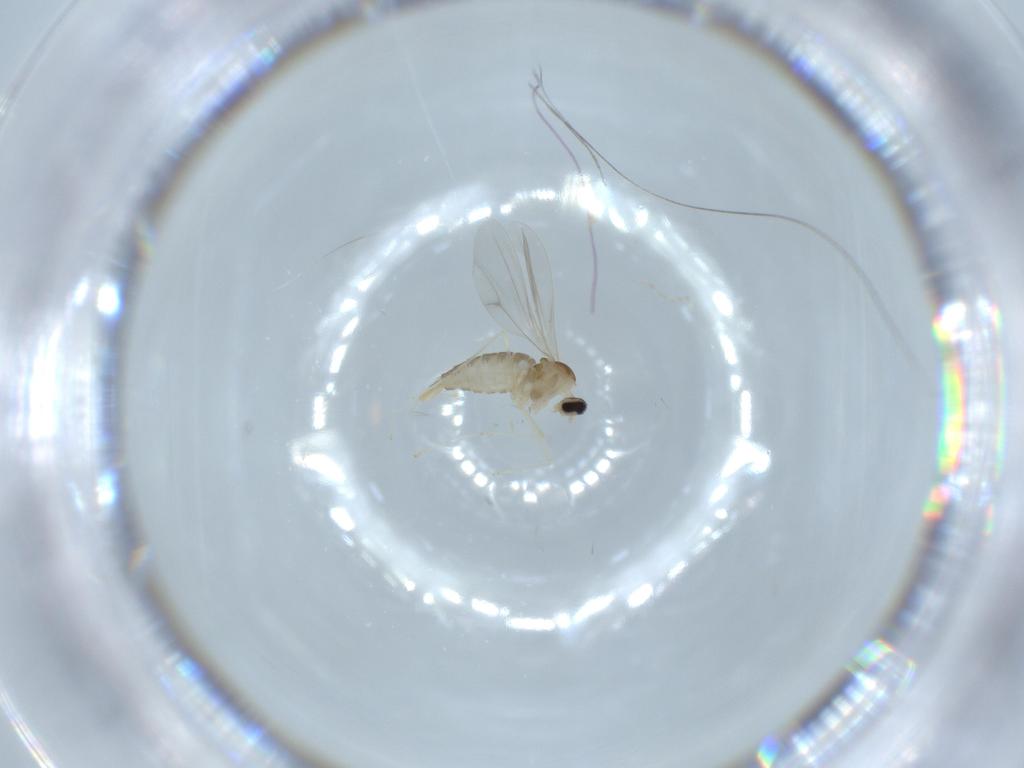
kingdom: Animalia
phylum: Arthropoda
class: Insecta
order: Diptera
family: Cecidomyiidae
